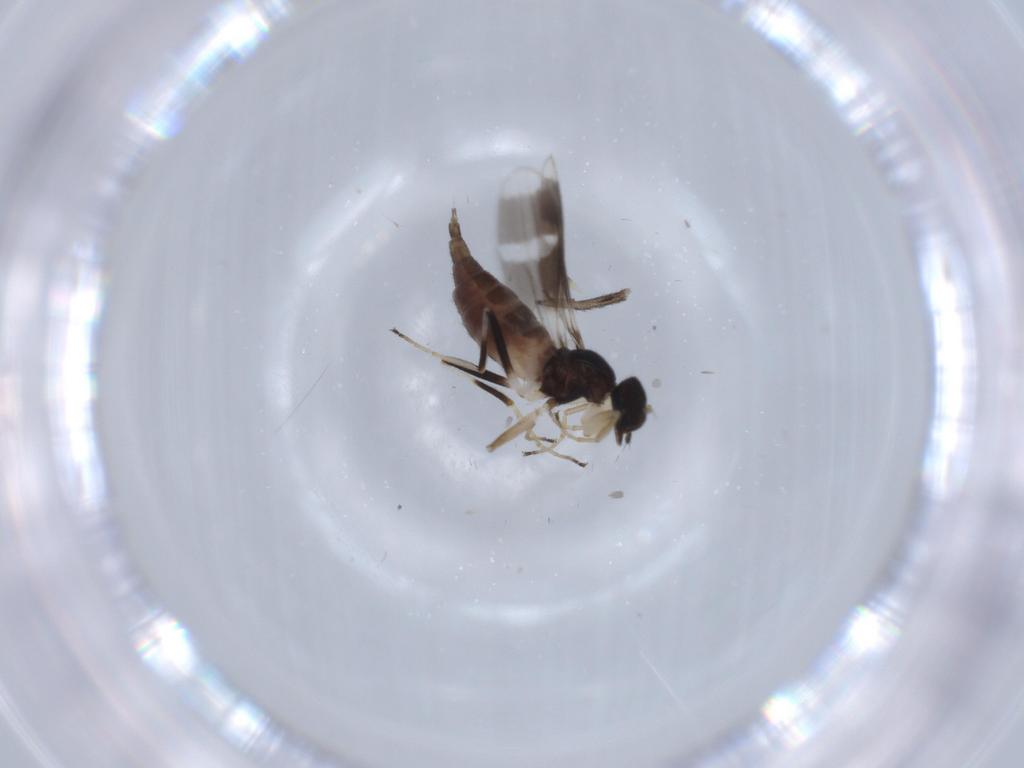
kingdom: Animalia
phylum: Arthropoda
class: Insecta
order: Diptera
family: Sciaridae
